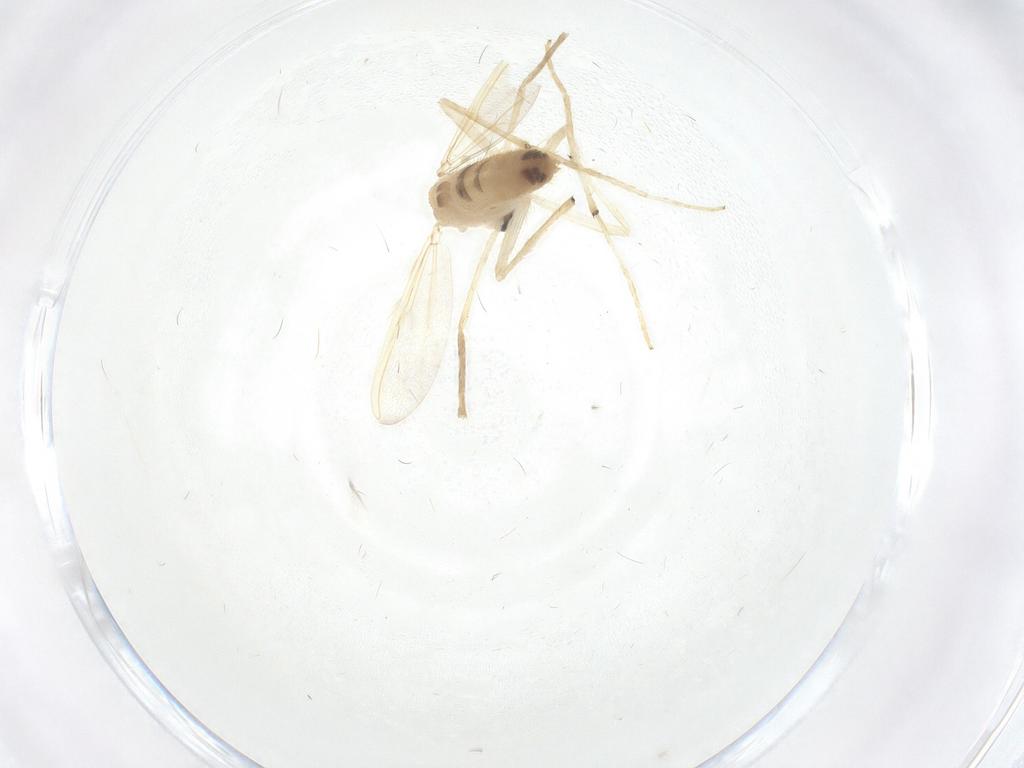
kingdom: Animalia
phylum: Arthropoda
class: Insecta
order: Diptera
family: Chironomidae
